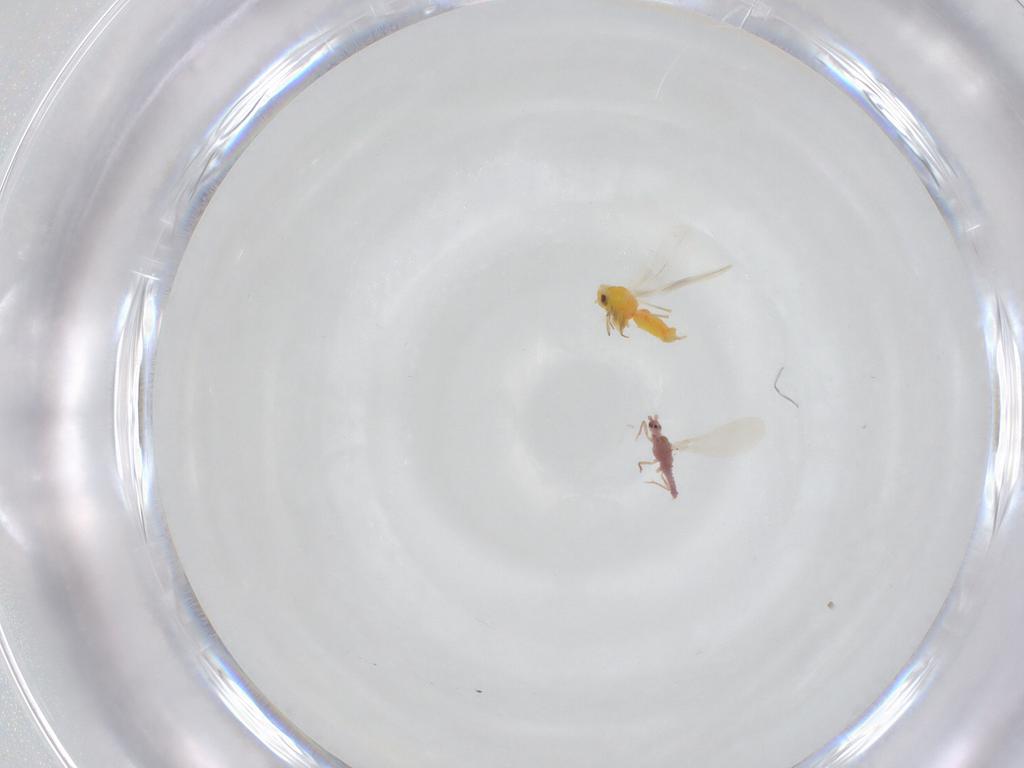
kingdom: Animalia
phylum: Arthropoda
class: Insecta
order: Hemiptera
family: Aleyrodidae
